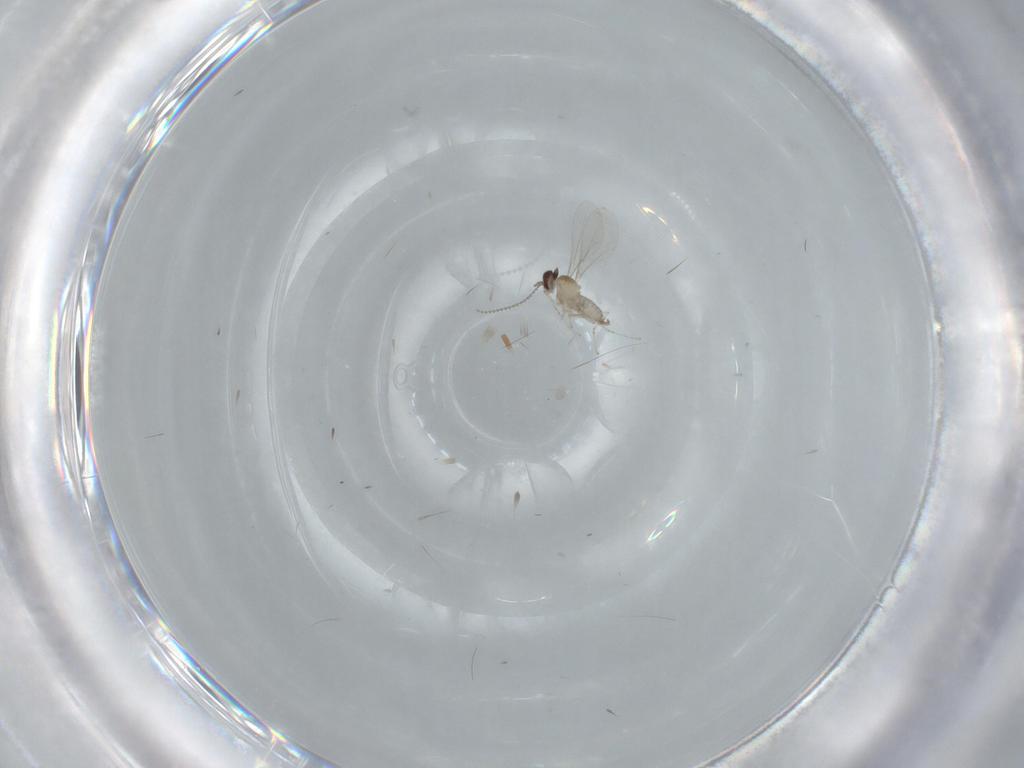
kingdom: Animalia
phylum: Arthropoda
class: Insecta
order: Diptera
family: Cecidomyiidae
